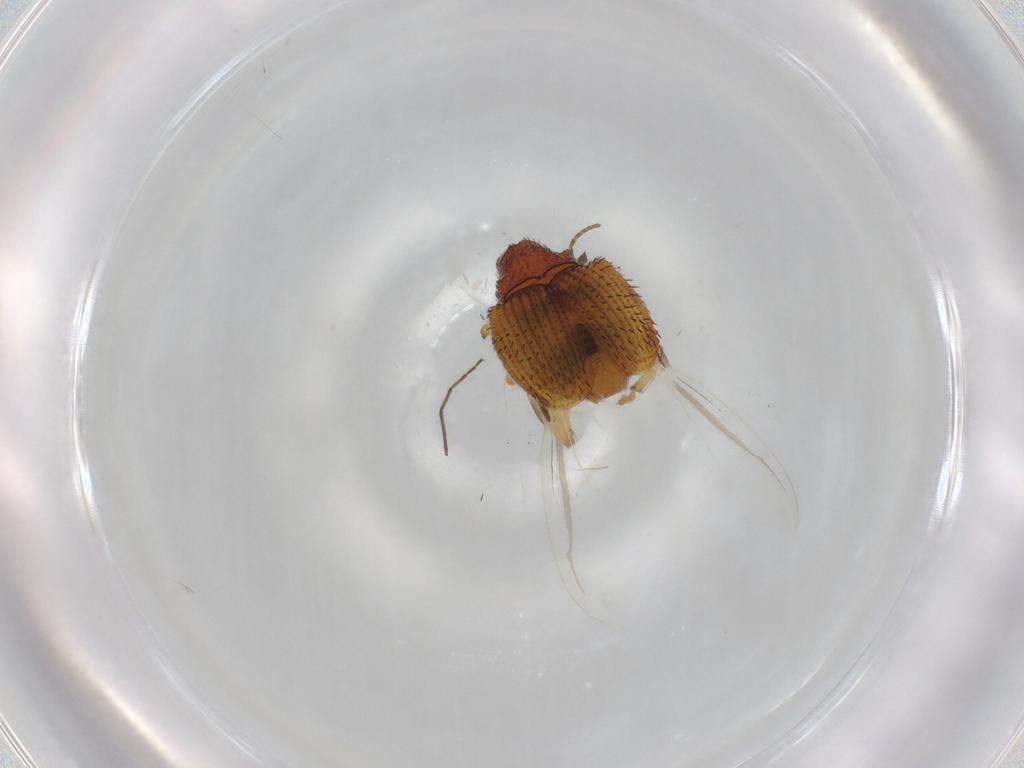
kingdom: Animalia
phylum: Arthropoda
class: Insecta
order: Coleoptera
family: Curculionidae
